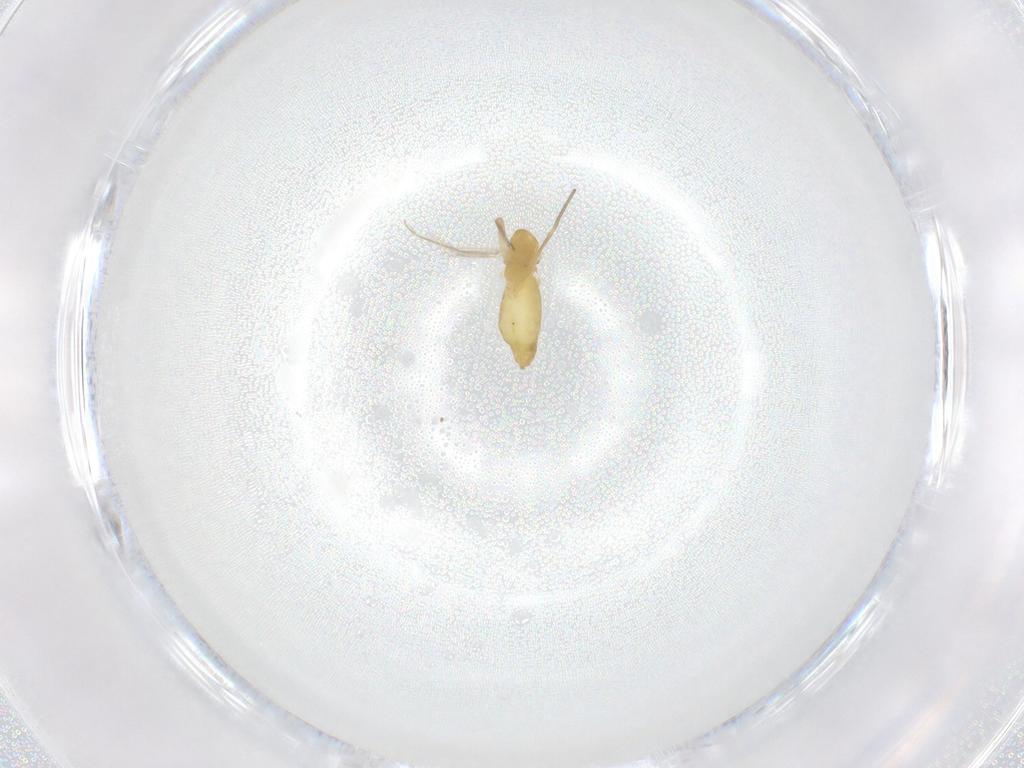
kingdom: Animalia
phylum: Arthropoda
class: Insecta
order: Diptera
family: Chironomidae
